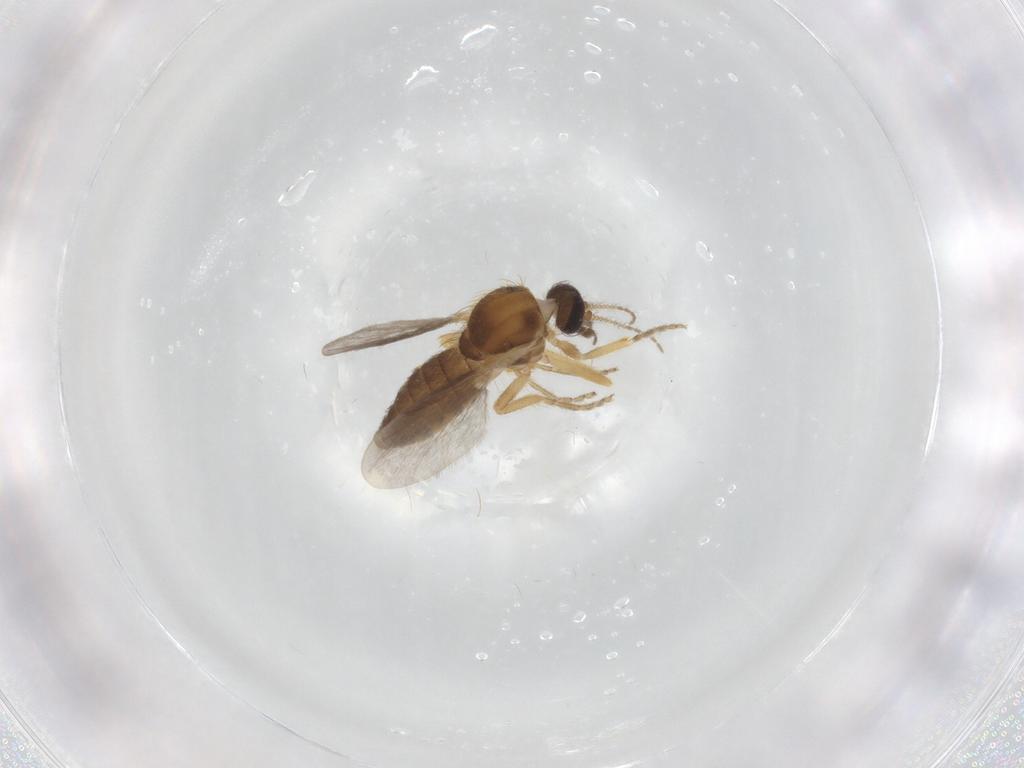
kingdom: Animalia
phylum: Arthropoda
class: Insecta
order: Diptera
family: Ceratopogonidae
